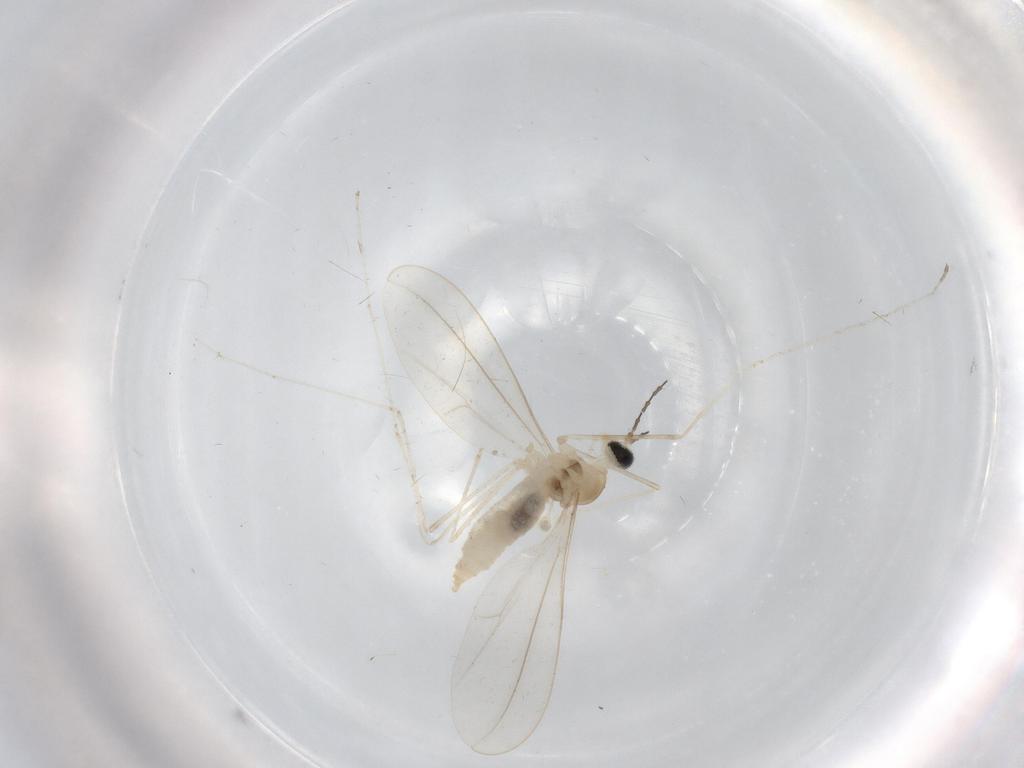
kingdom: Animalia
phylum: Arthropoda
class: Insecta
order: Diptera
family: Cecidomyiidae
